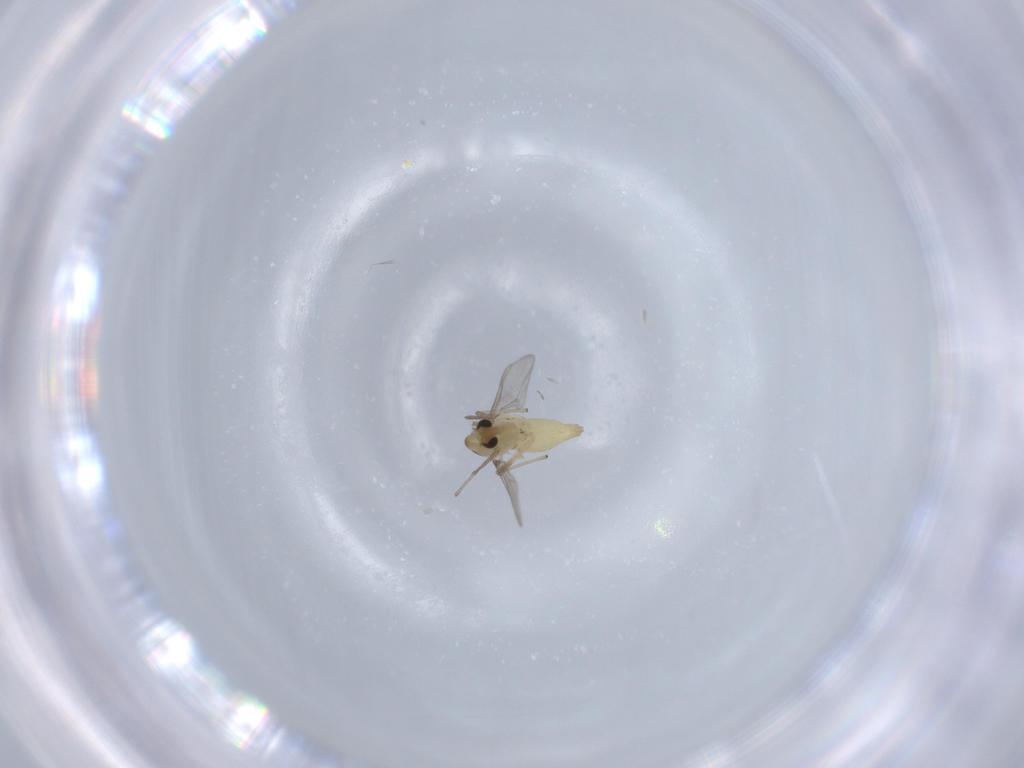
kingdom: Animalia
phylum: Arthropoda
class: Insecta
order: Diptera
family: Chironomidae
